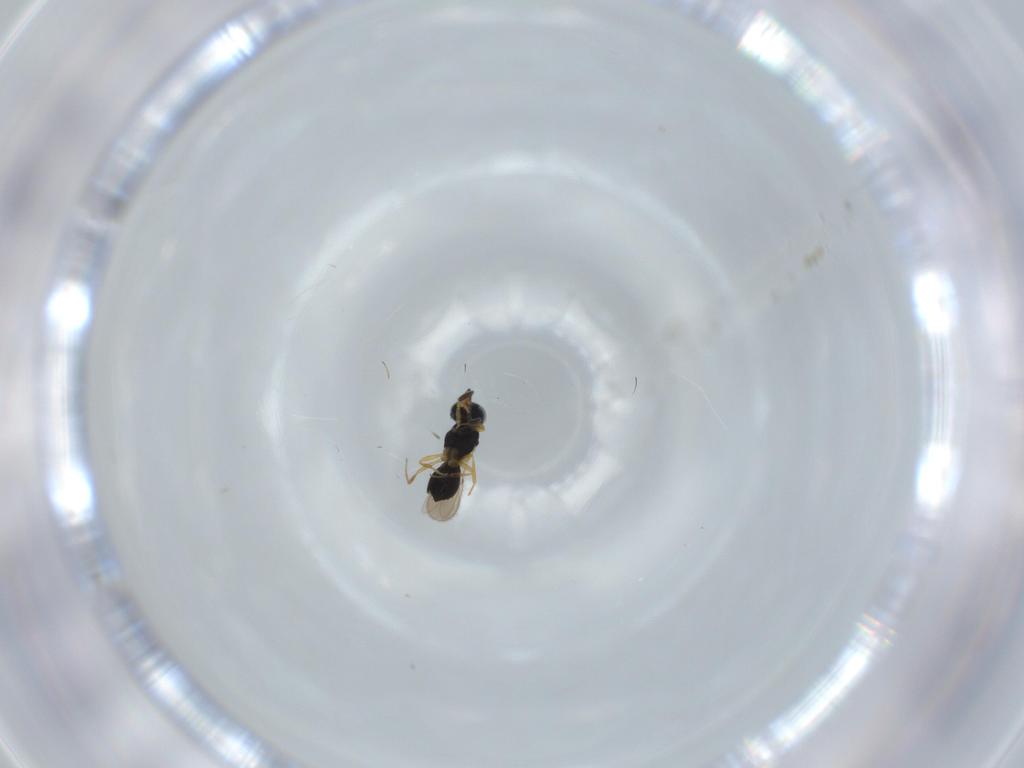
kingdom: Animalia
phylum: Arthropoda
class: Insecta
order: Hymenoptera
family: Scelionidae
